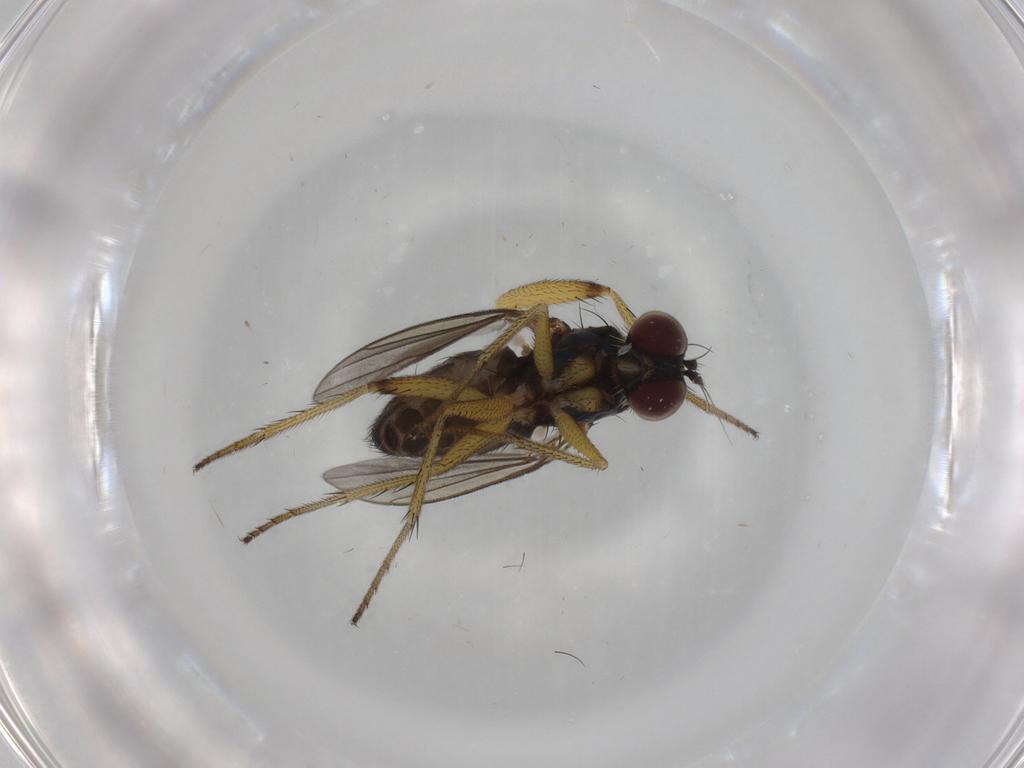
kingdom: Animalia
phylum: Arthropoda
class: Insecta
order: Diptera
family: Dolichopodidae
